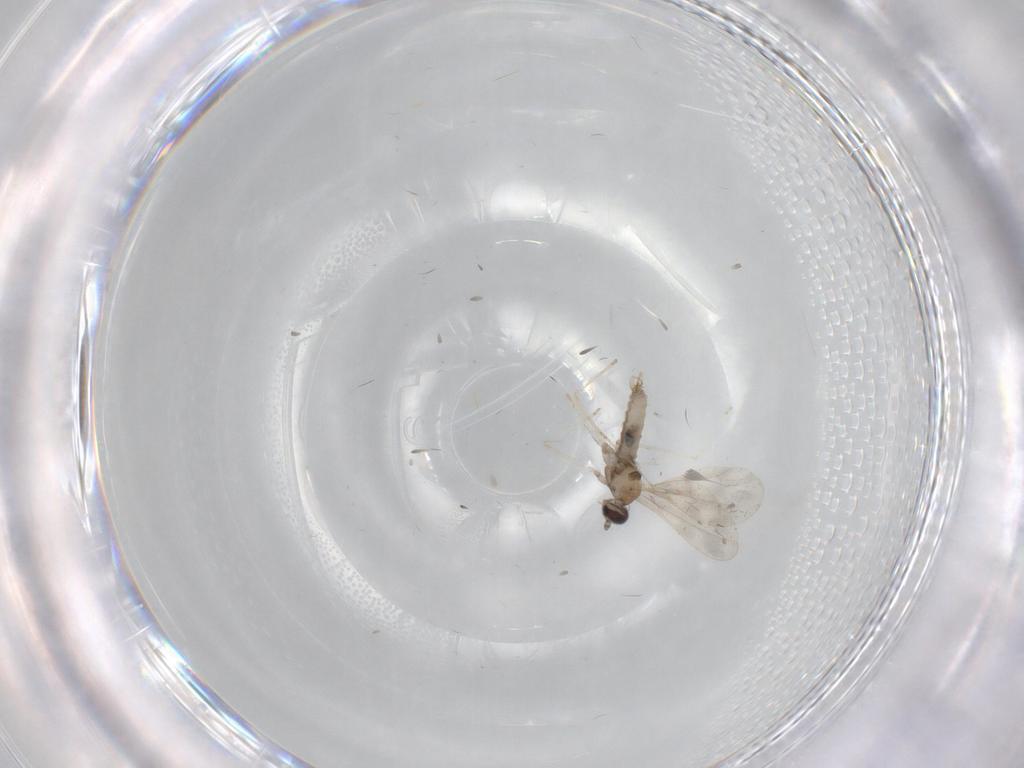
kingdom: Animalia
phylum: Arthropoda
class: Insecta
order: Diptera
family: Cecidomyiidae
